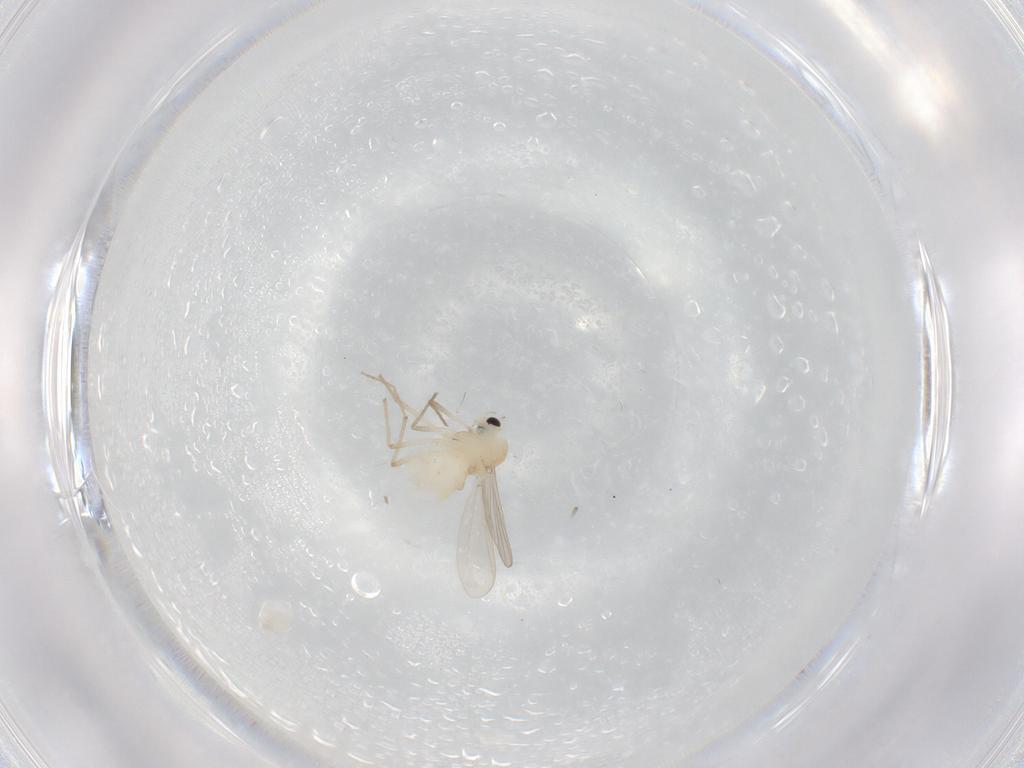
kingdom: Animalia
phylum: Arthropoda
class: Insecta
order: Diptera
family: Chironomidae
